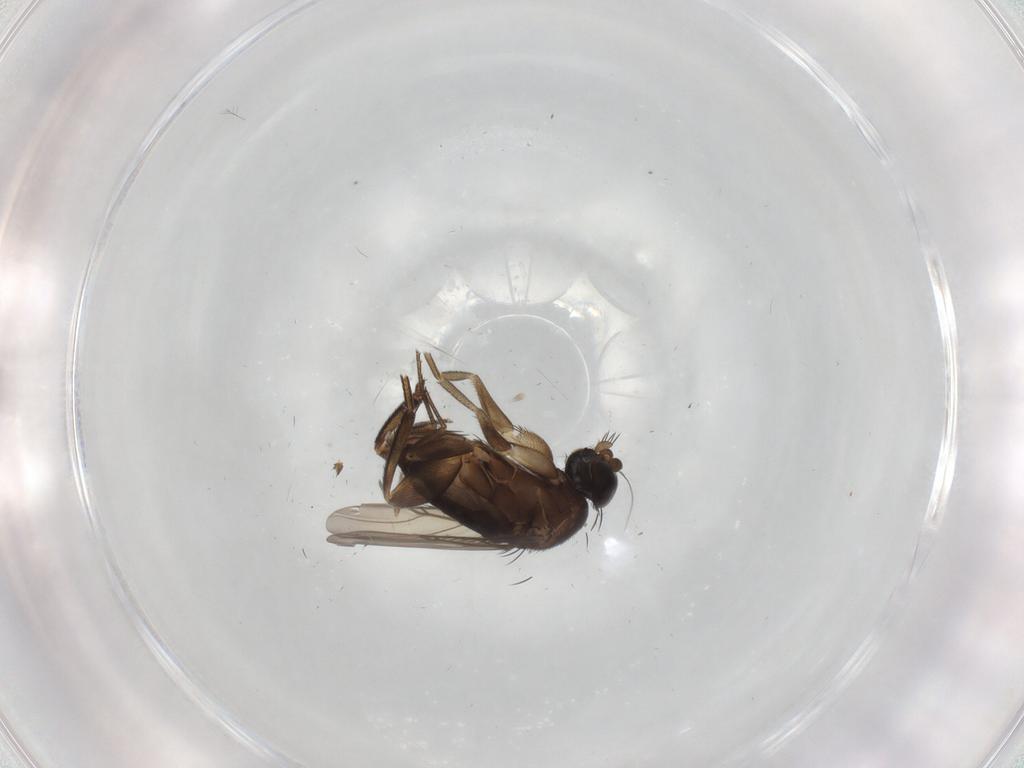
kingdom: Animalia
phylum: Arthropoda
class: Insecta
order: Diptera
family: Phoridae
